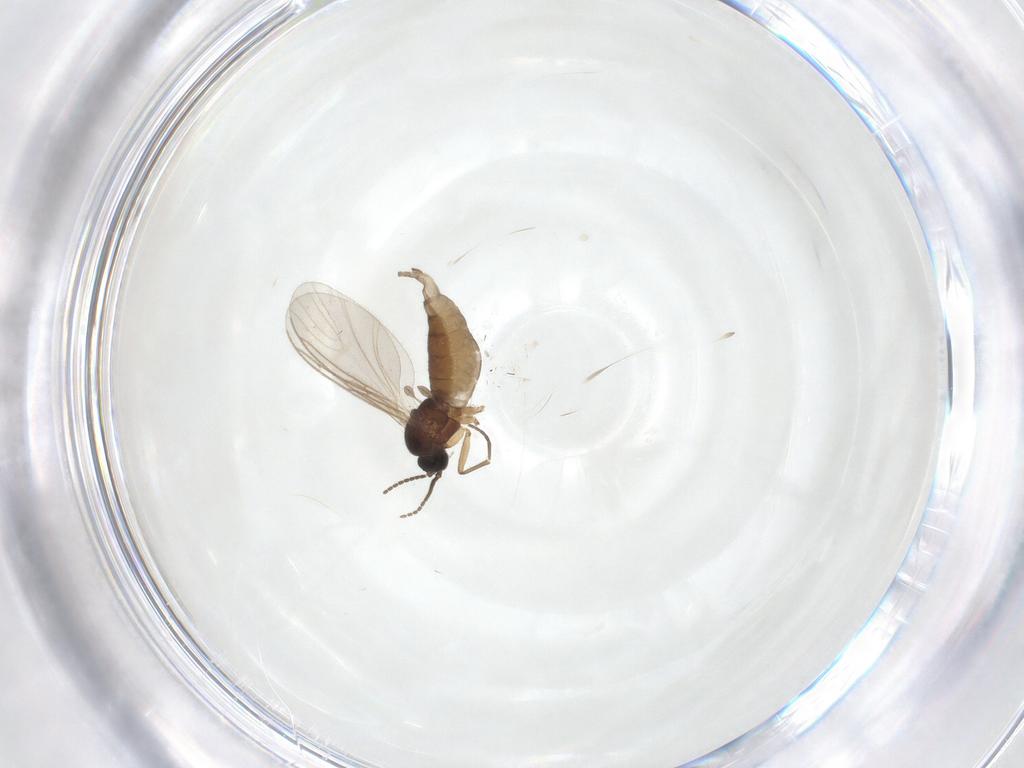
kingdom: Animalia
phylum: Arthropoda
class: Insecta
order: Diptera
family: Sciaridae
